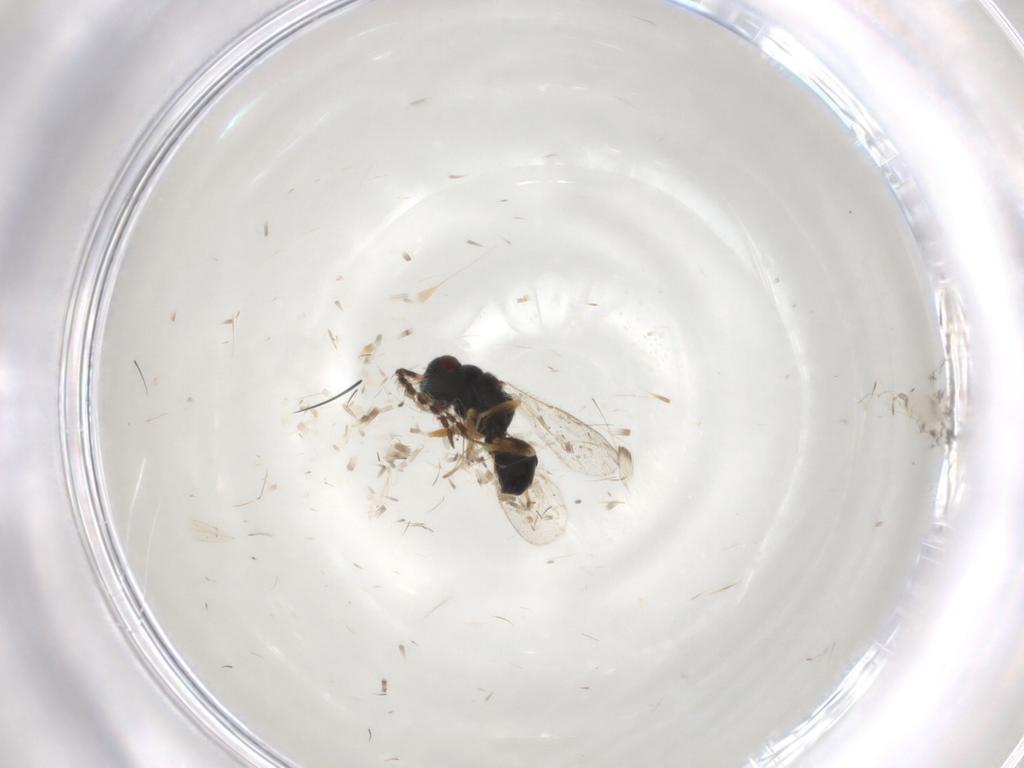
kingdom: Animalia
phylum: Arthropoda
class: Insecta
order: Hymenoptera
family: Formicidae
